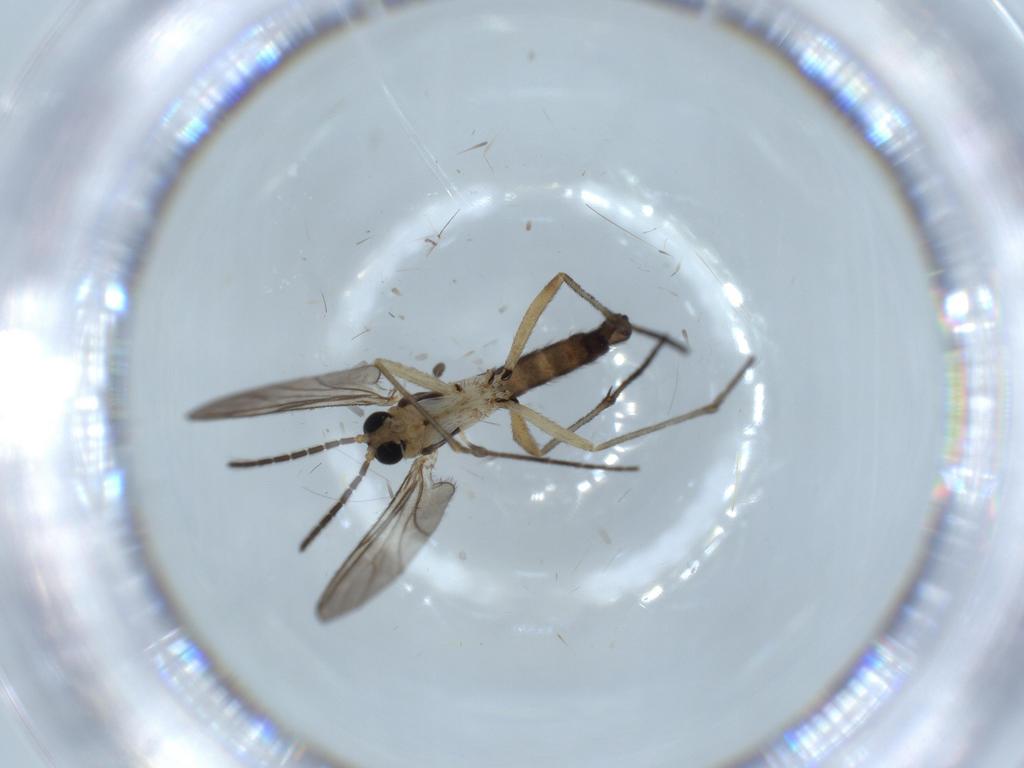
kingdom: Animalia
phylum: Arthropoda
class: Insecta
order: Diptera
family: Sciaridae
